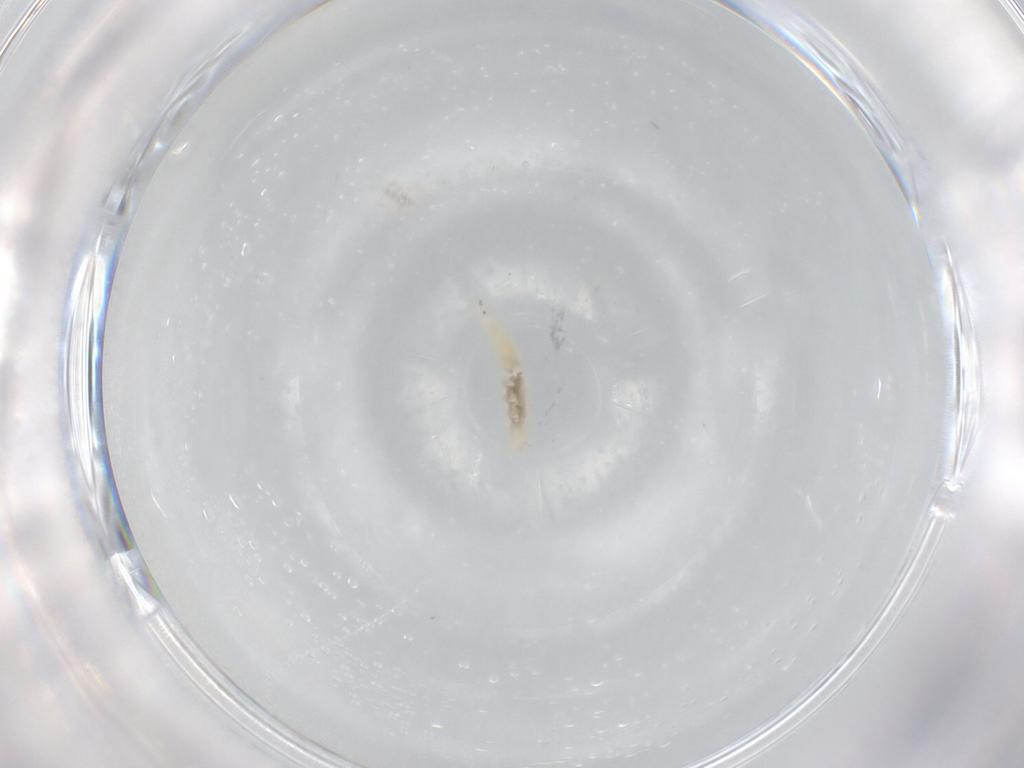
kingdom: Animalia
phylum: Arthropoda
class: Insecta
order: Diptera
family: Cecidomyiidae
